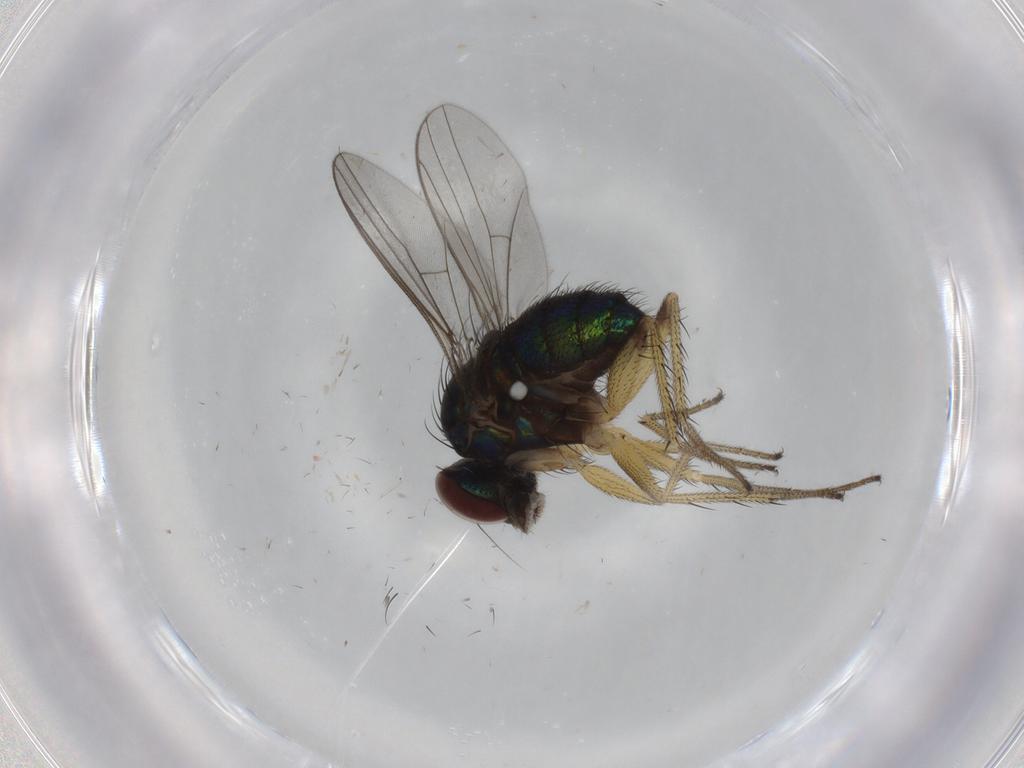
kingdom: Animalia
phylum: Arthropoda
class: Insecta
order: Diptera
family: Dolichopodidae
